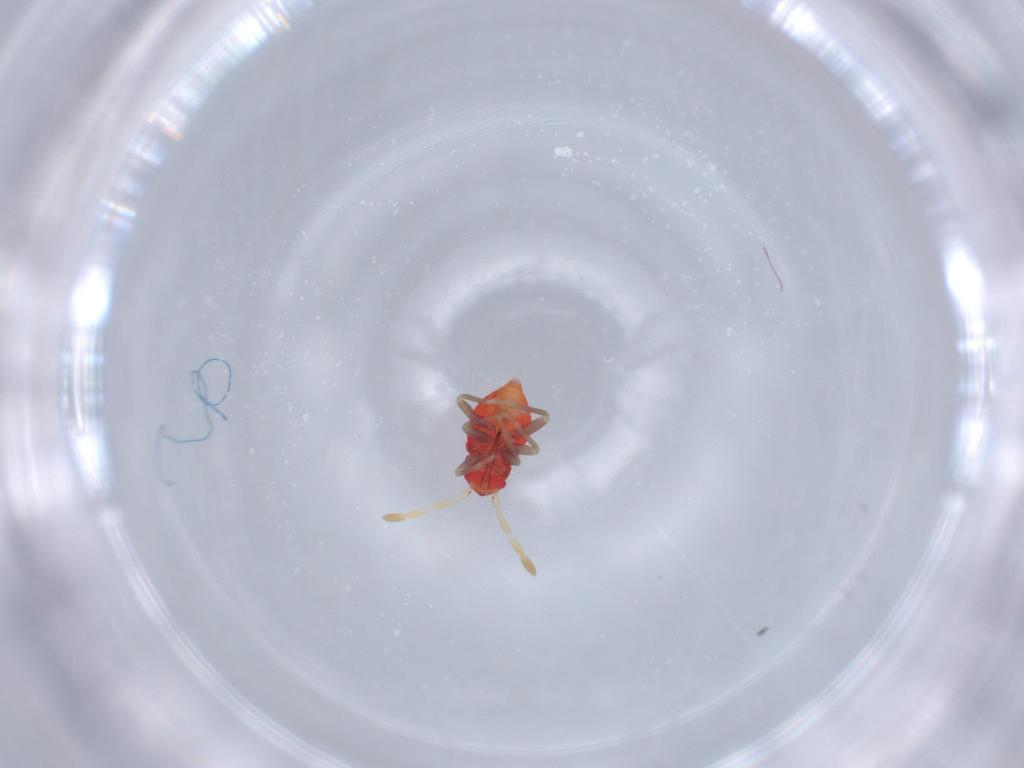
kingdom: Animalia
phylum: Arthropoda
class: Insecta
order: Hemiptera
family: Miridae
